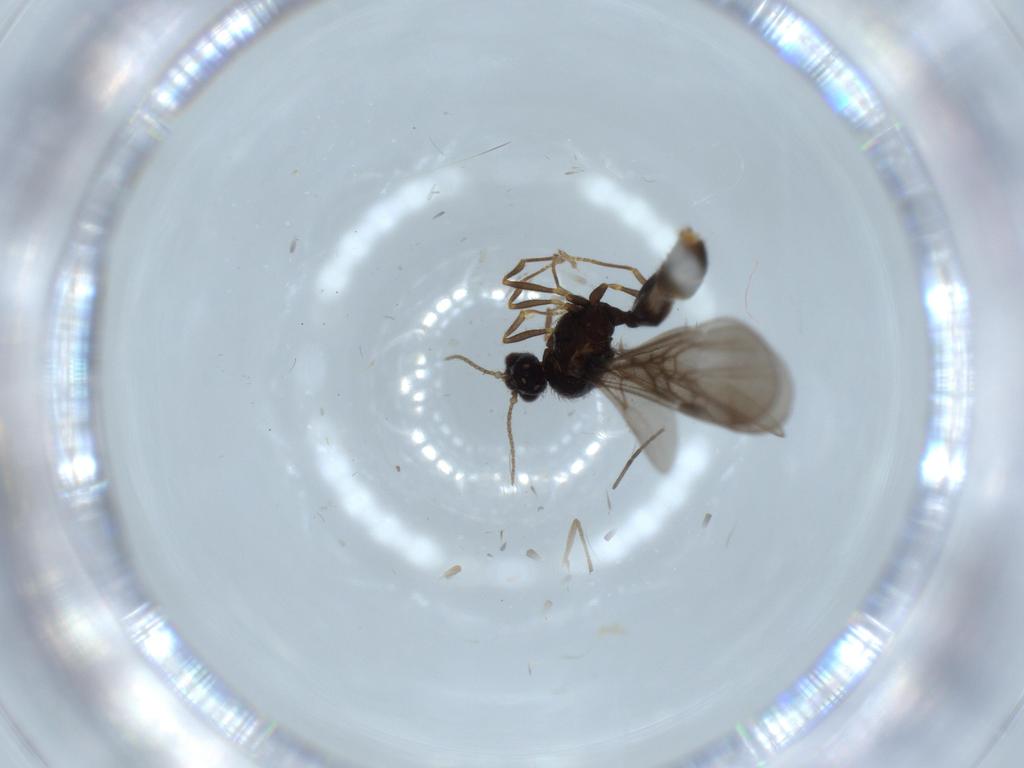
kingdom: Animalia
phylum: Arthropoda
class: Insecta
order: Hymenoptera
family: Formicidae
